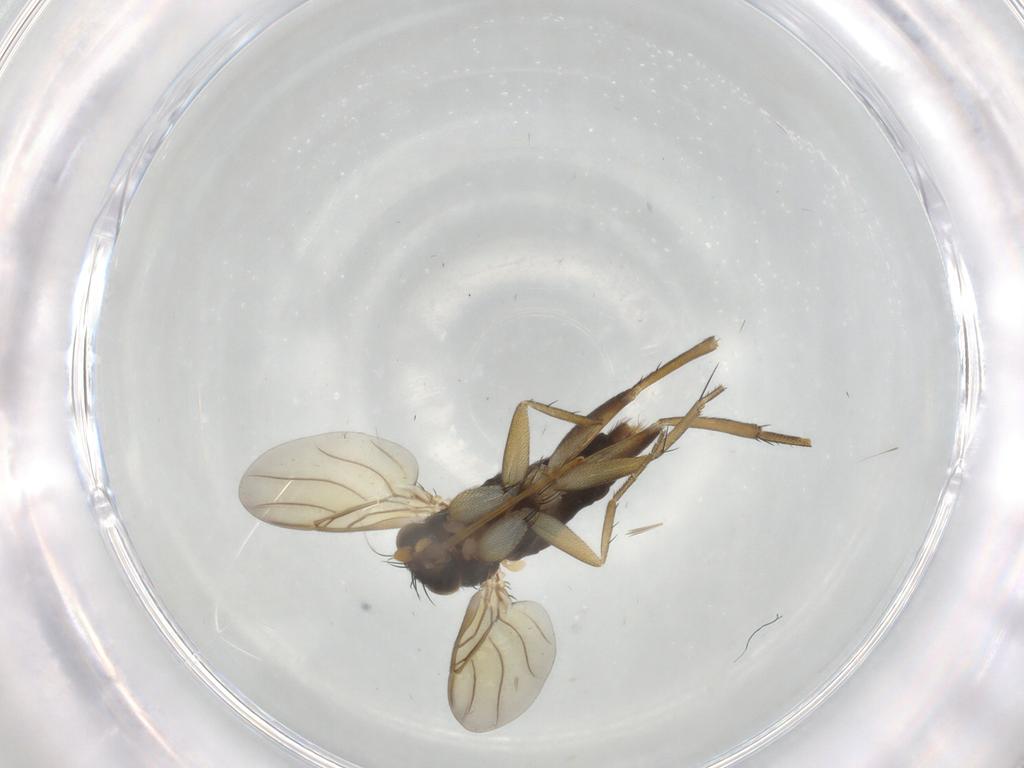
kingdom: Animalia
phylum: Arthropoda
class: Insecta
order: Diptera
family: Phoridae
